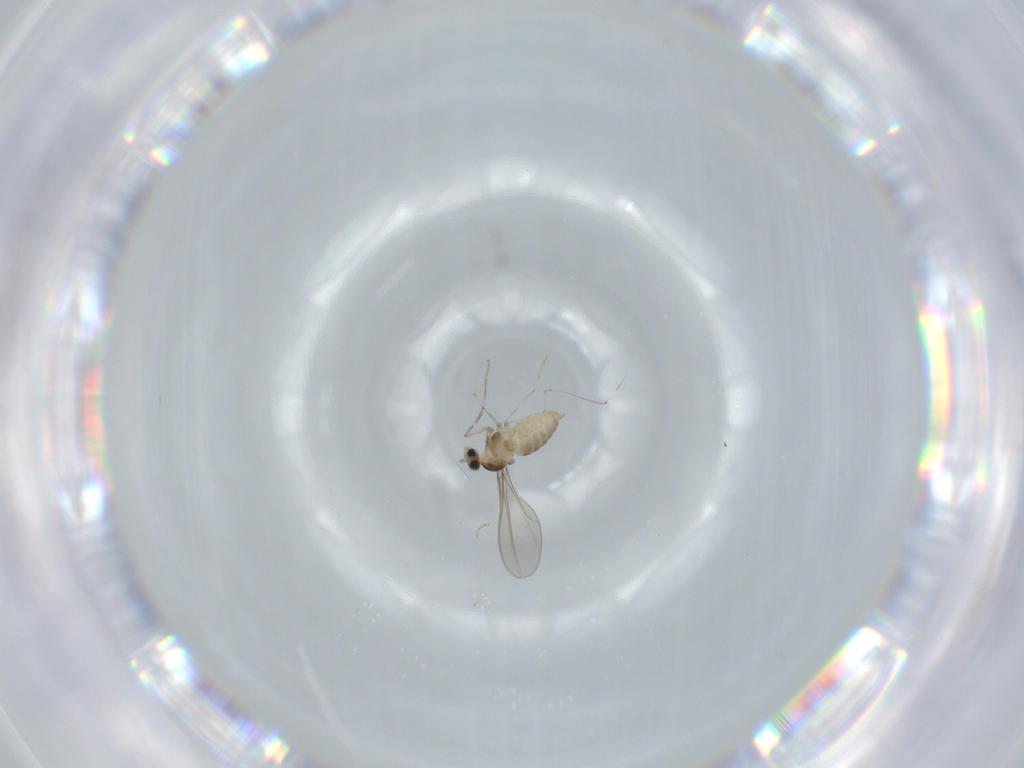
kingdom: Animalia
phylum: Arthropoda
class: Insecta
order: Diptera
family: Cecidomyiidae
